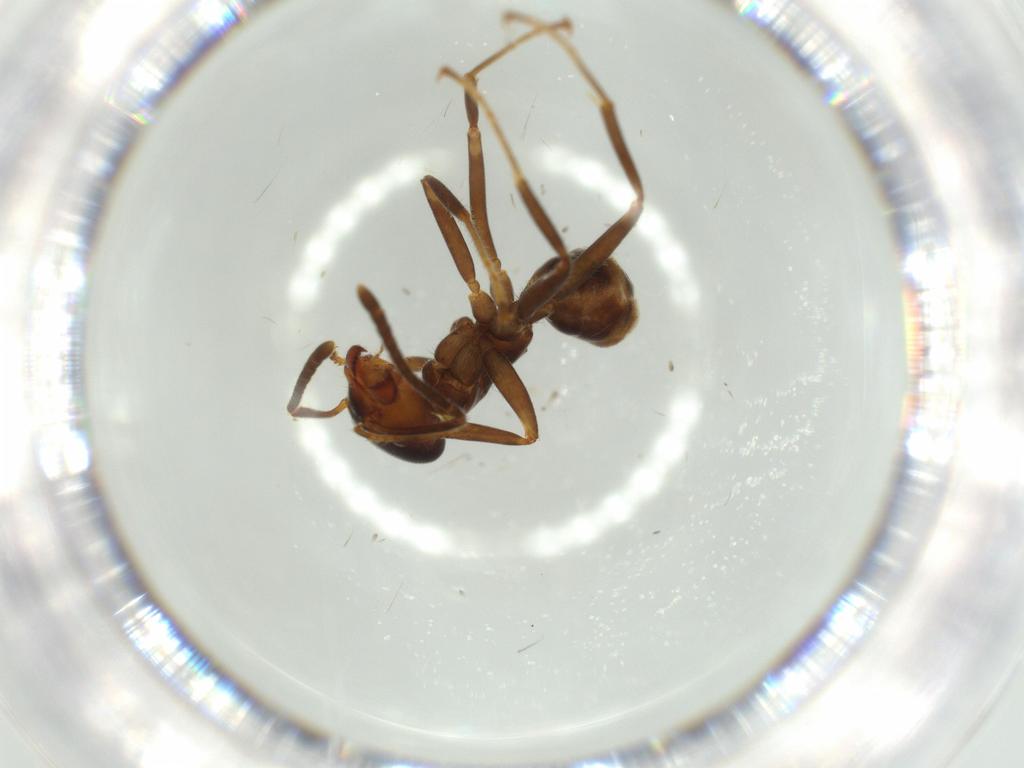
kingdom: Animalia
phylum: Arthropoda
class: Insecta
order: Hymenoptera
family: Formicidae
